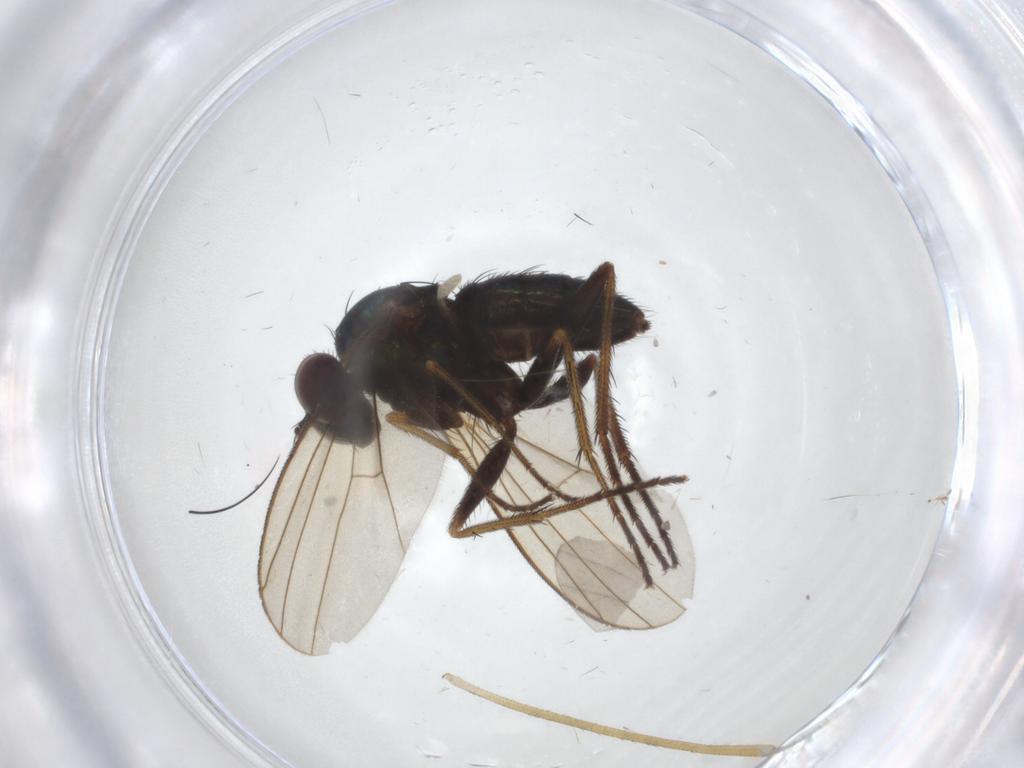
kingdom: Animalia
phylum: Arthropoda
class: Insecta
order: Diptera
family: Dolichopodidae
